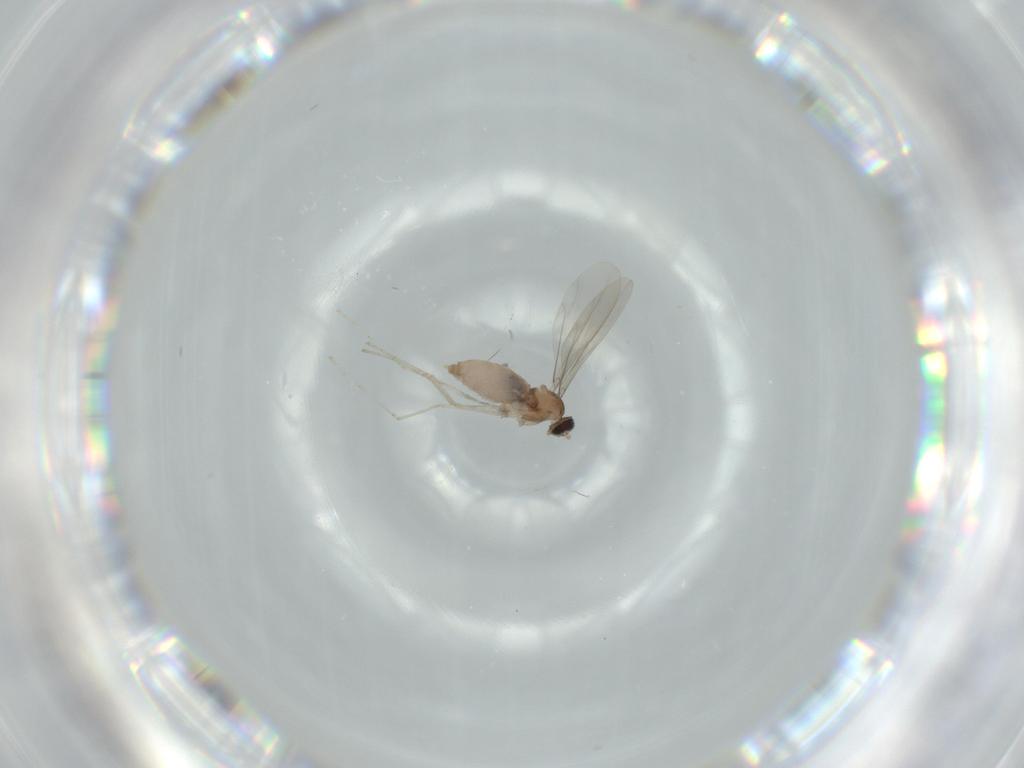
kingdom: Animalia
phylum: Arthropoda
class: Insecta
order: Diptera
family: Cecidomyiidae
